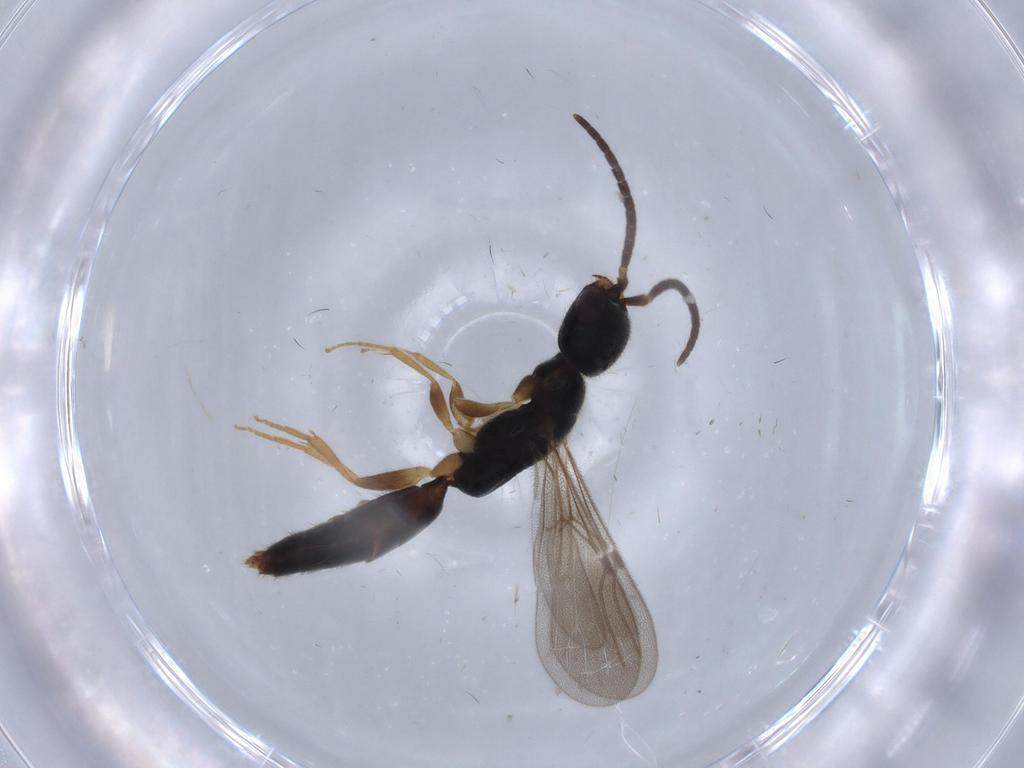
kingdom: Animalia
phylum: Arthropoda
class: Insecta
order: Hymenoptera
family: Bethylidae
